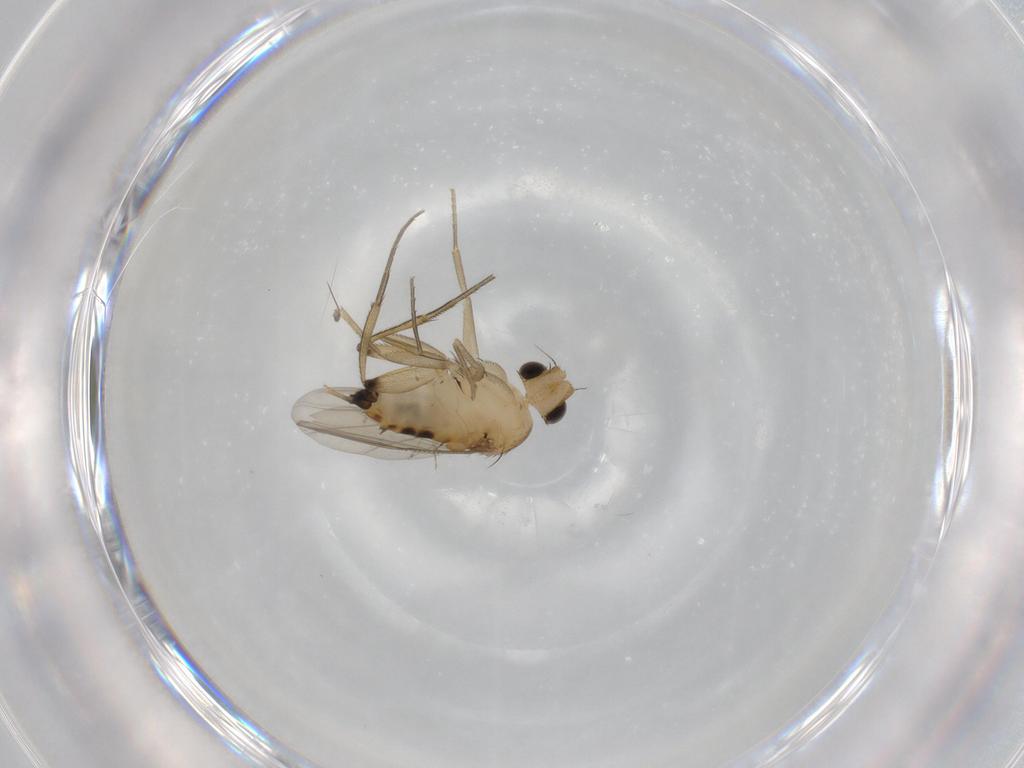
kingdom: Animalia
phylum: Arthropoda
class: Insecta
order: Diptera
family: Phoridae
